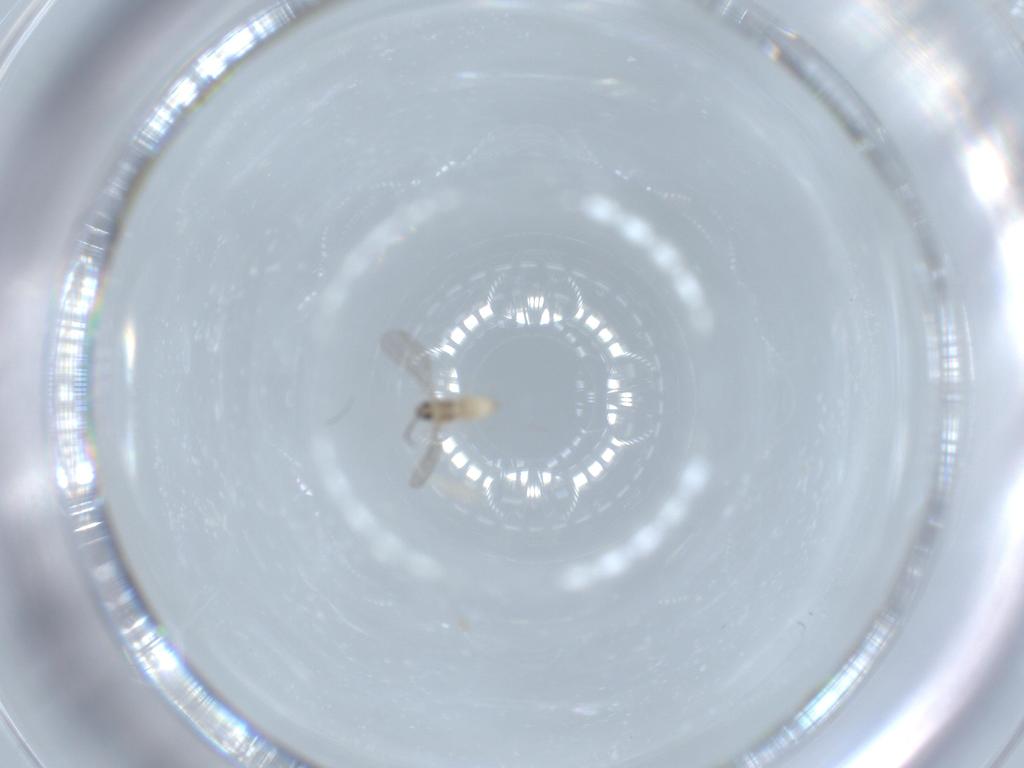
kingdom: Animalia
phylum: Arthropoda
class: Insecta
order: Diptera
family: Cecidomyiidae
